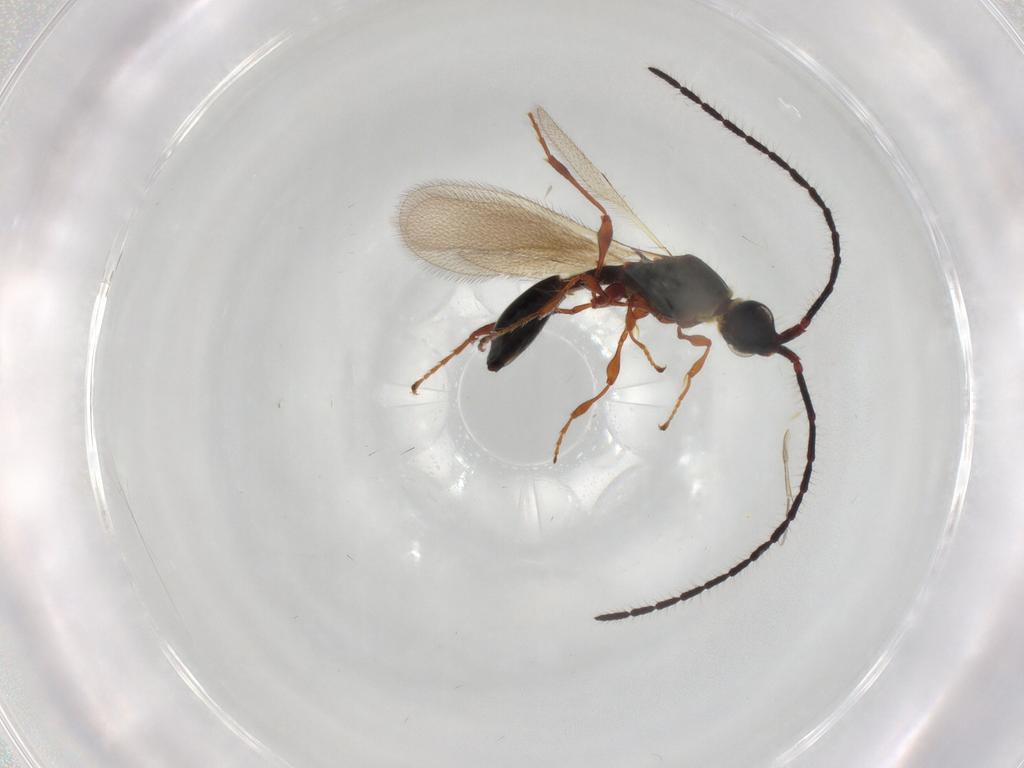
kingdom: Animalia
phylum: Arthropoda
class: Insecta
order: Hymenoptera
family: Diapriidae
